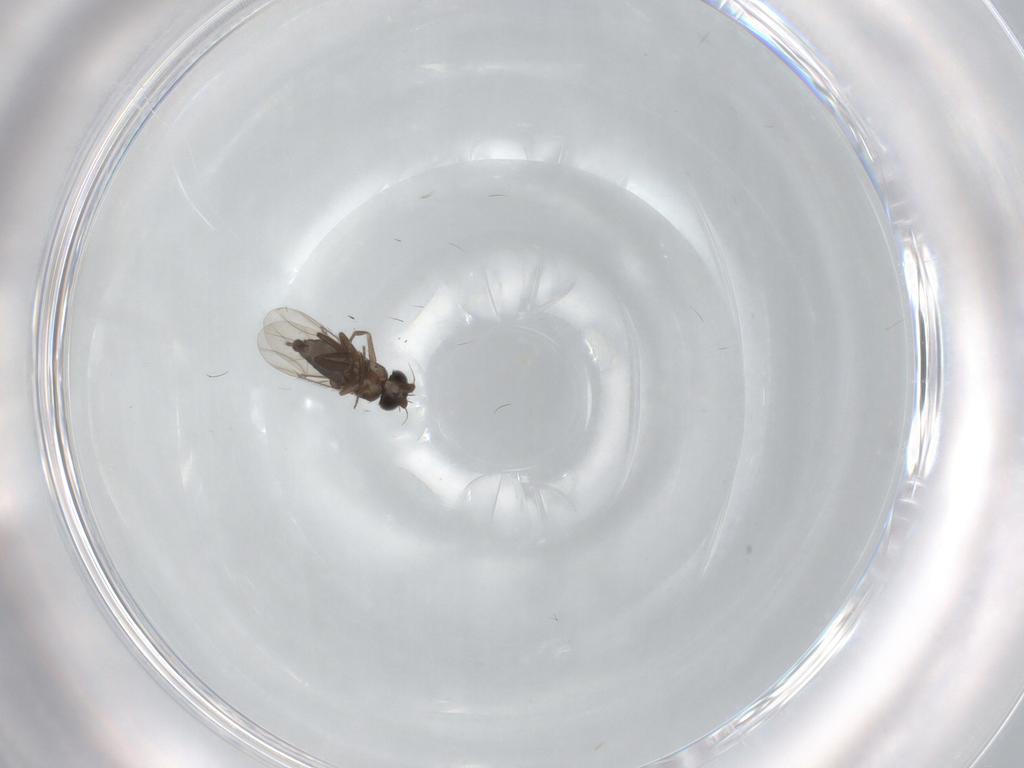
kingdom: Animalia
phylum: Arthropoda
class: Insecta
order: Diptera
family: Phoridae
